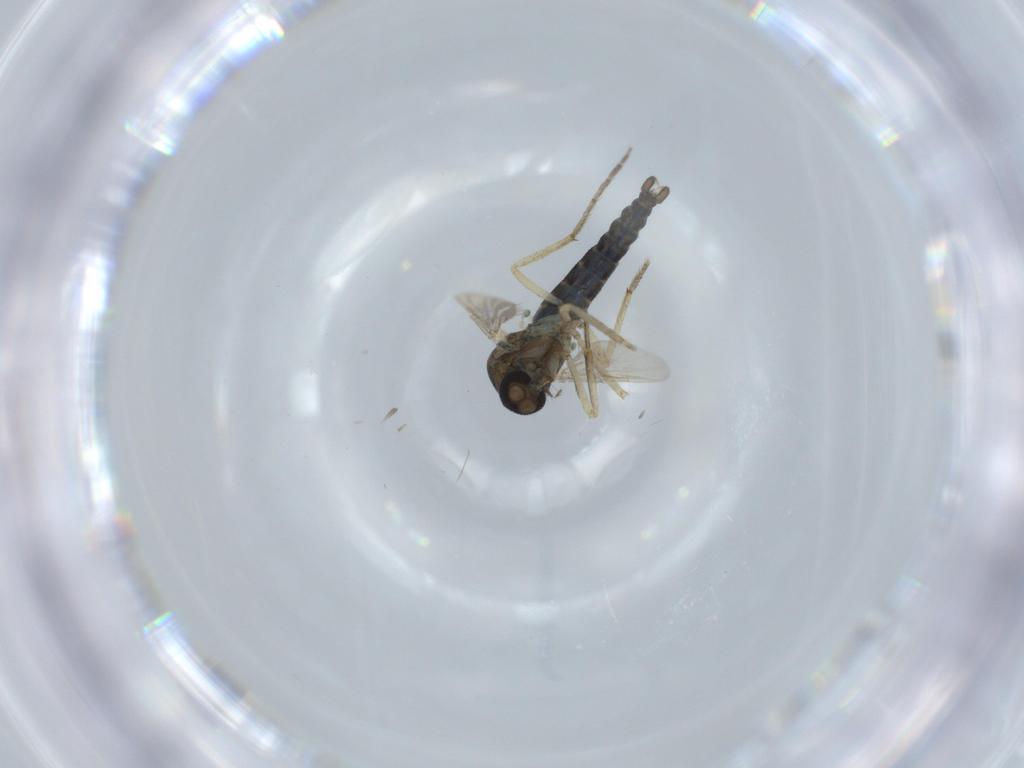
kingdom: Animalia
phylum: Arthropoda
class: Insecta
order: Diptera
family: Ceratopogonidae
